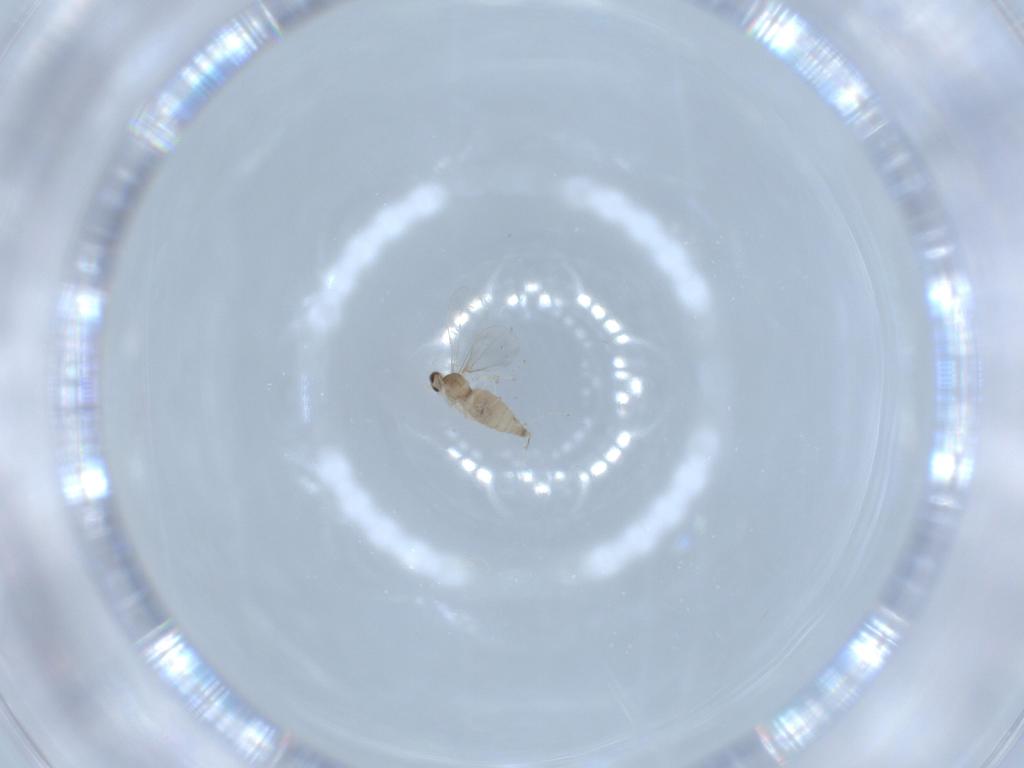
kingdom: Animalia
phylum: Arthropoda
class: Insecta
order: Diptera
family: Cecidomyiidae
